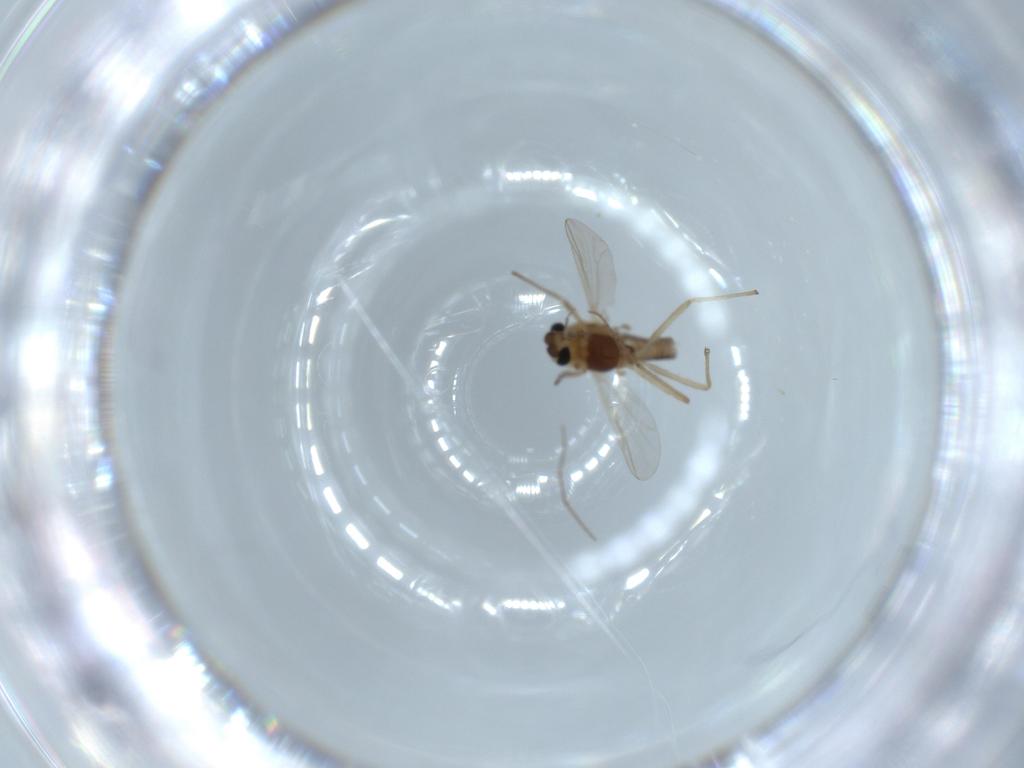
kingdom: Animalia
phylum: Arthropoda
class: Insecta
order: Diptera
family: Chironomidae
